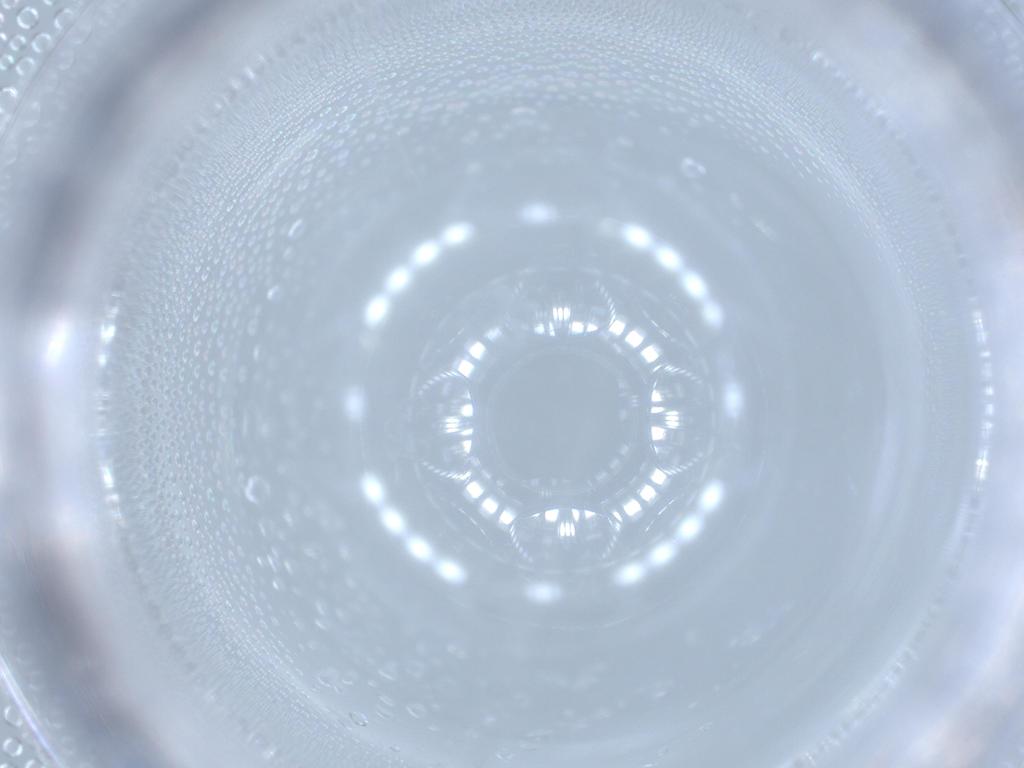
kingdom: Animalia
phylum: Arthropoda
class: Insecta
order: Hemiptera
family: Issidae
